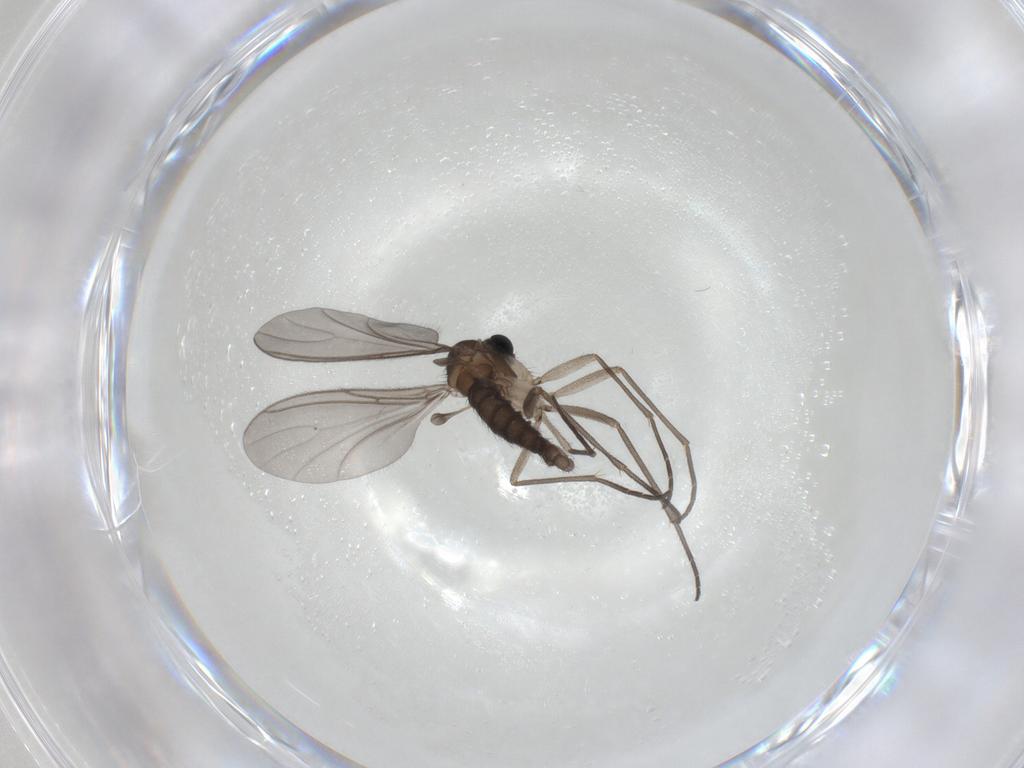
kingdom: Animalia
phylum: Arthropoda
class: Insecta
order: Diptera
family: Sciaridae
